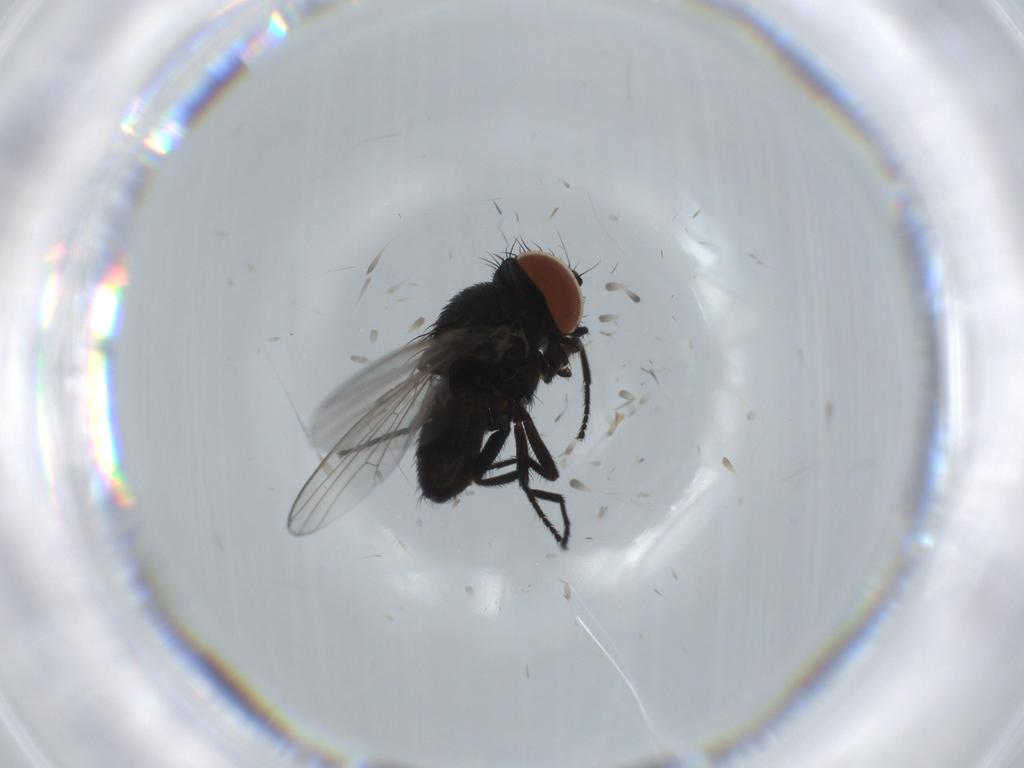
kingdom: Animalia
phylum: Arthropoda
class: Insecta
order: Diptera
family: Milichiidae
